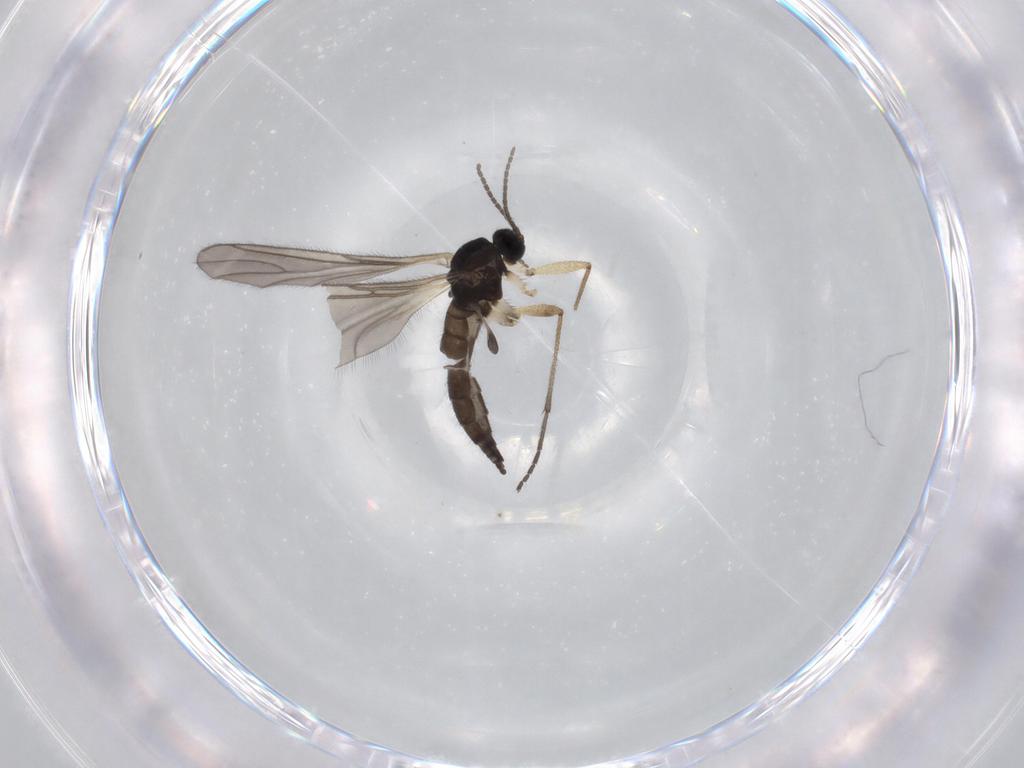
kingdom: Animalia
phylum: Arthropoda
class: Insecta
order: Diptera
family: Sciaridae
